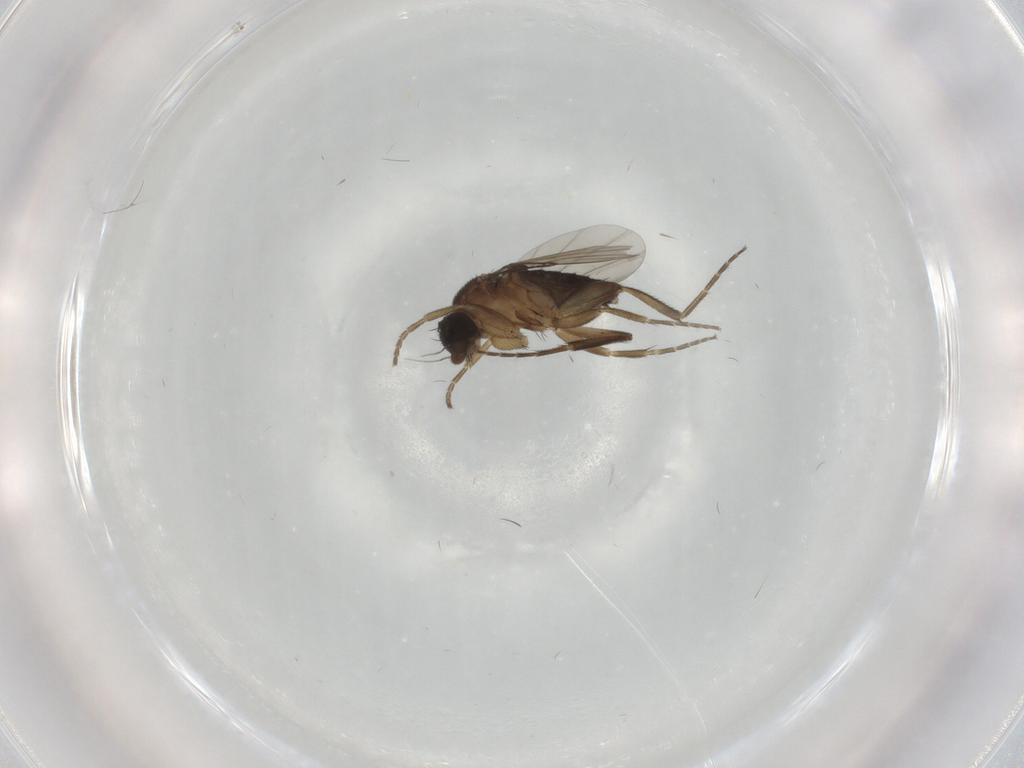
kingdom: Animalia
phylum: Arthropoda
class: Insecta
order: Diptera
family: Phoridae
